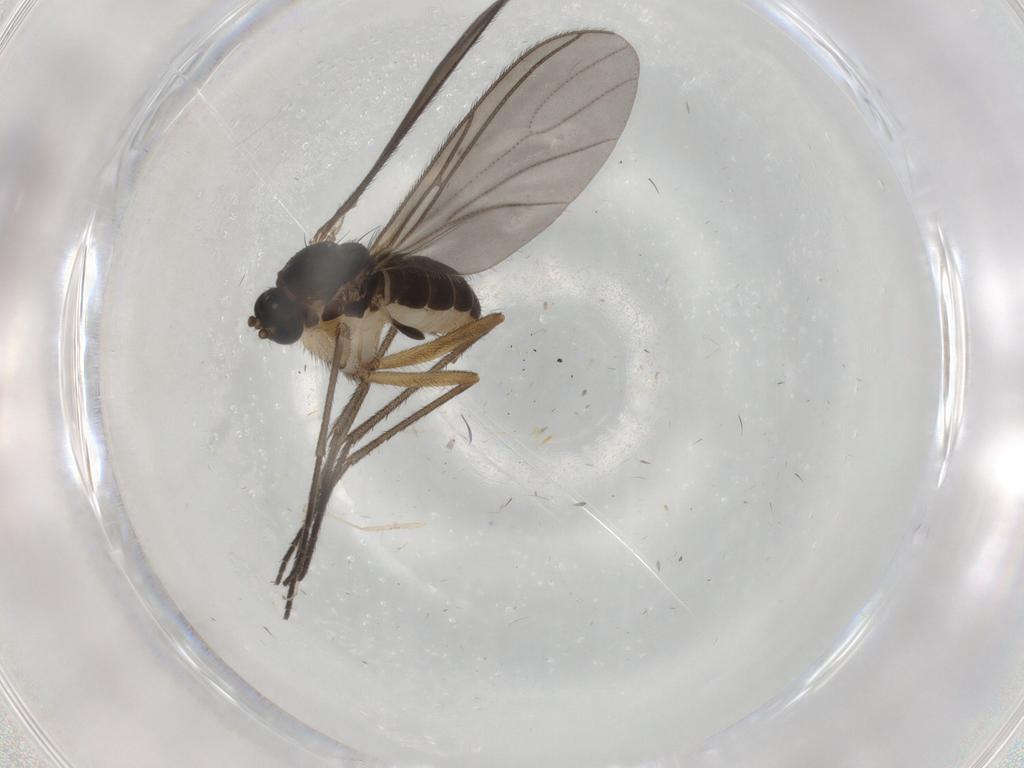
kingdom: Animalia
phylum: Arthropoda
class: Insecta
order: Diptera
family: Sciaridae
